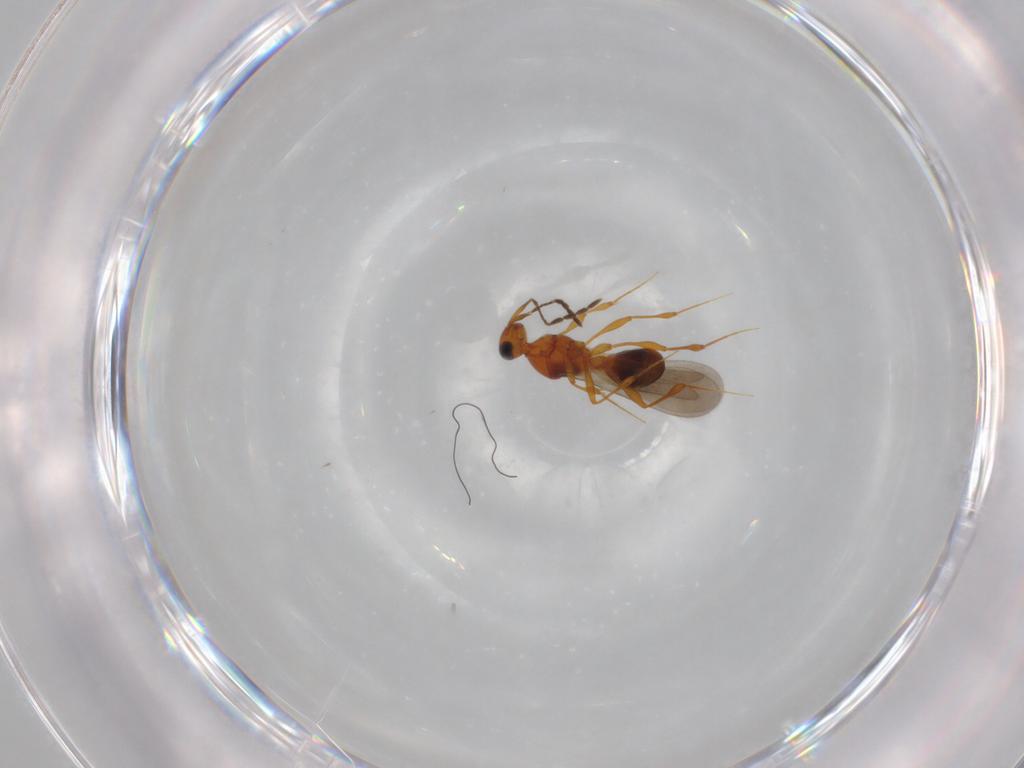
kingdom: Animalia
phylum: Arthropoda
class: Insecta
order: Hymenoptera
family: Platygastridae
